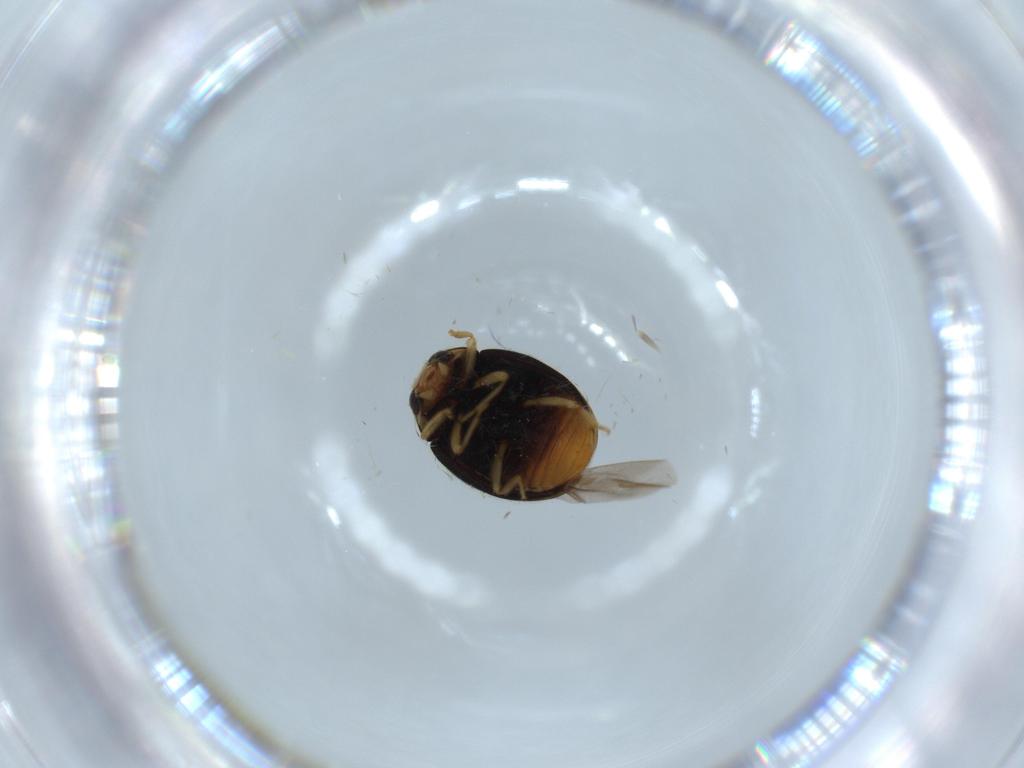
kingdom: Animalia
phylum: Arthropoda
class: Insecta
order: Coleoptera
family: Coccinellidae
